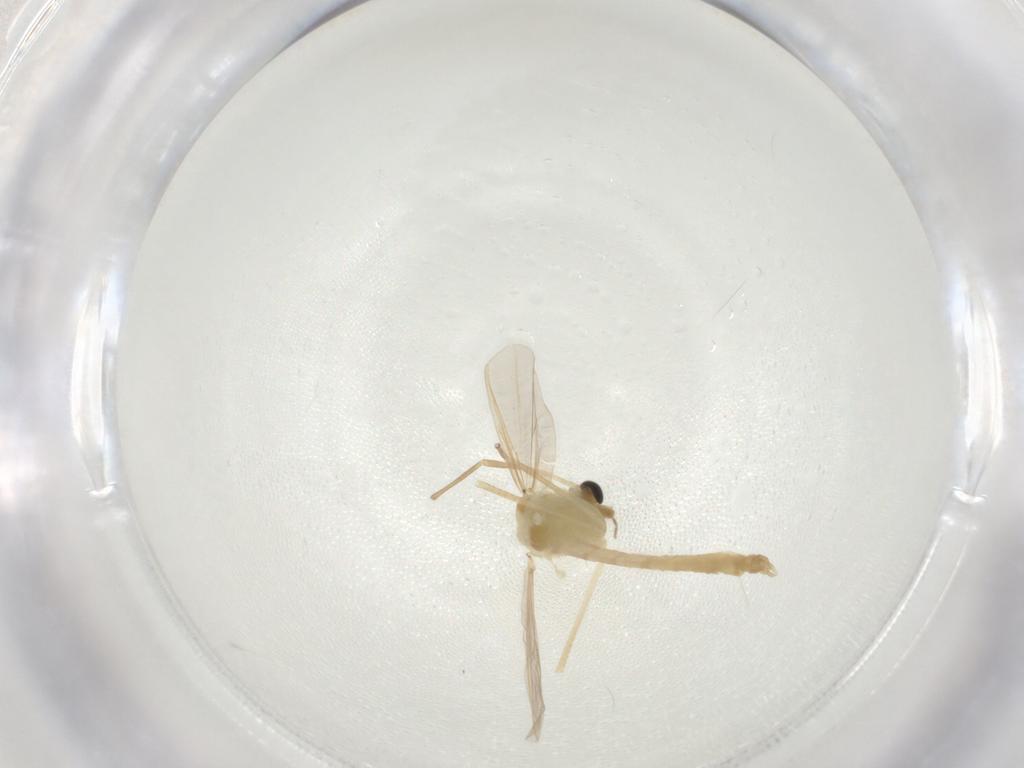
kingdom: Animalia
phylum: Arthropoda
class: Insecta
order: Diptera
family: Chironomidae
